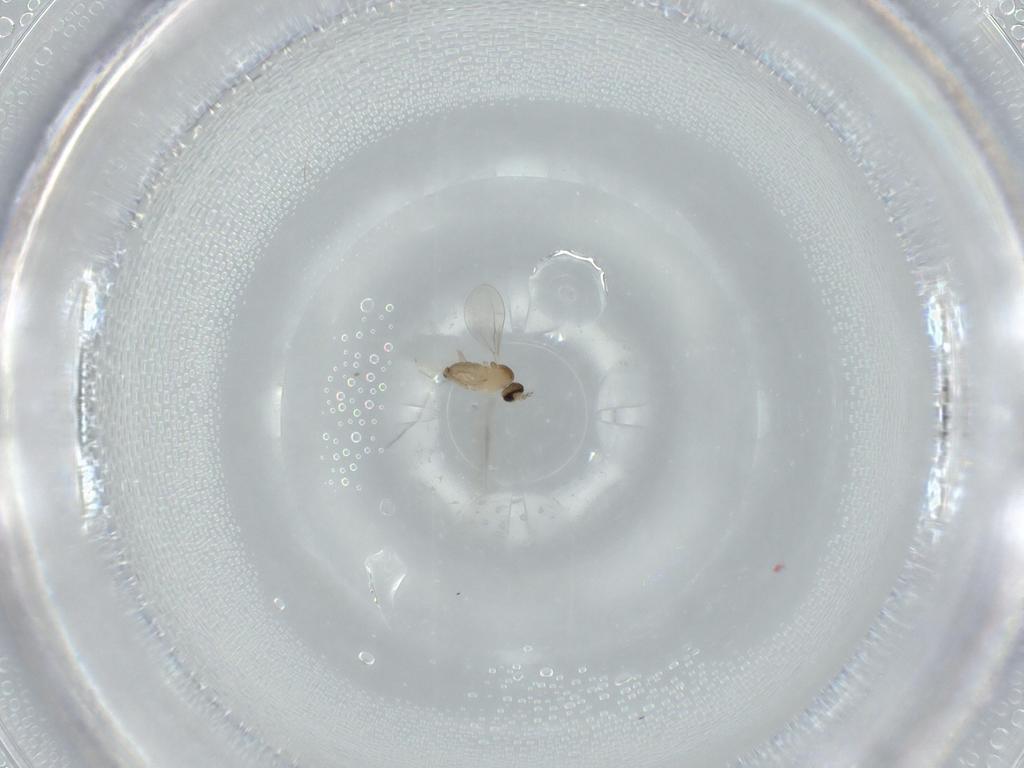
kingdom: Animalia
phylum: Arthropoda
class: Insecta
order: Diptera
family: Cecidomyiidae
